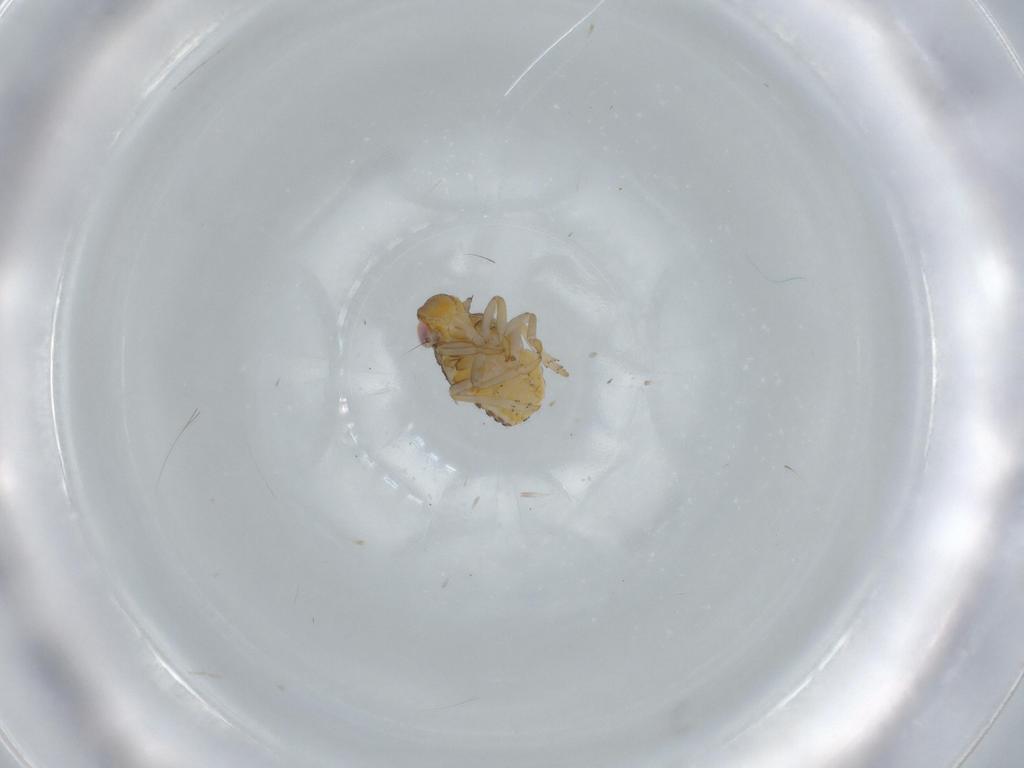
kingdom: Animalia
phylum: Arthropoda
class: Insecta
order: Hemiptera
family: Issidae
